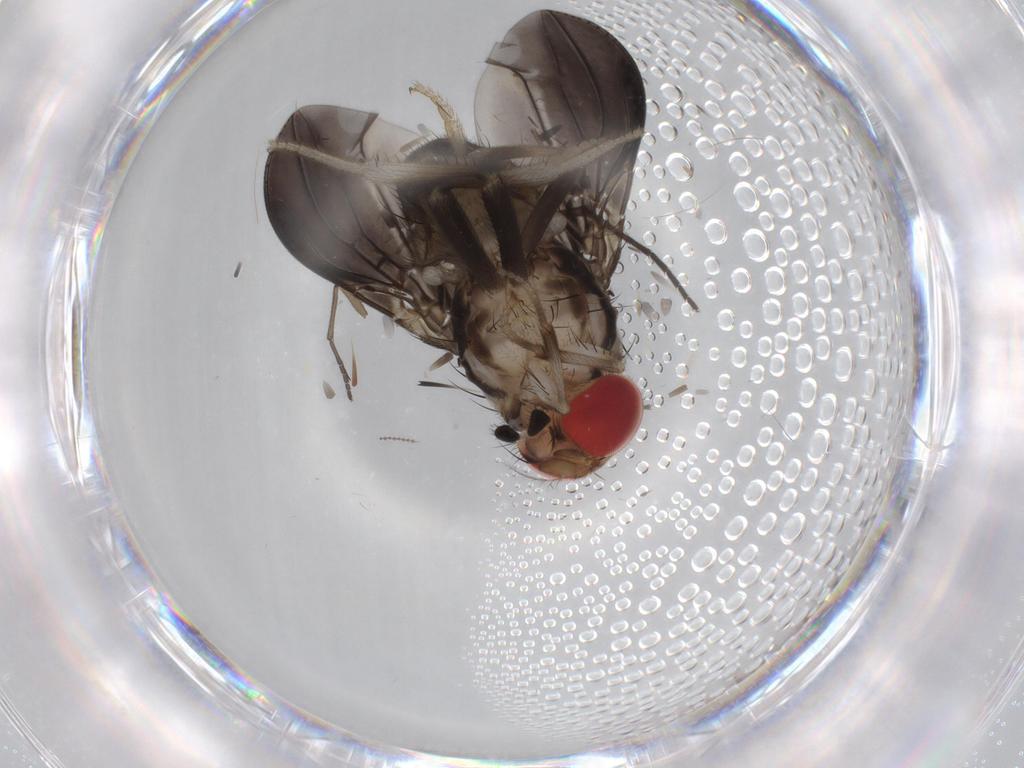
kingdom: Animalia
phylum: Arthropoda
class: Insecta
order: Diptera
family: Sciaridae
